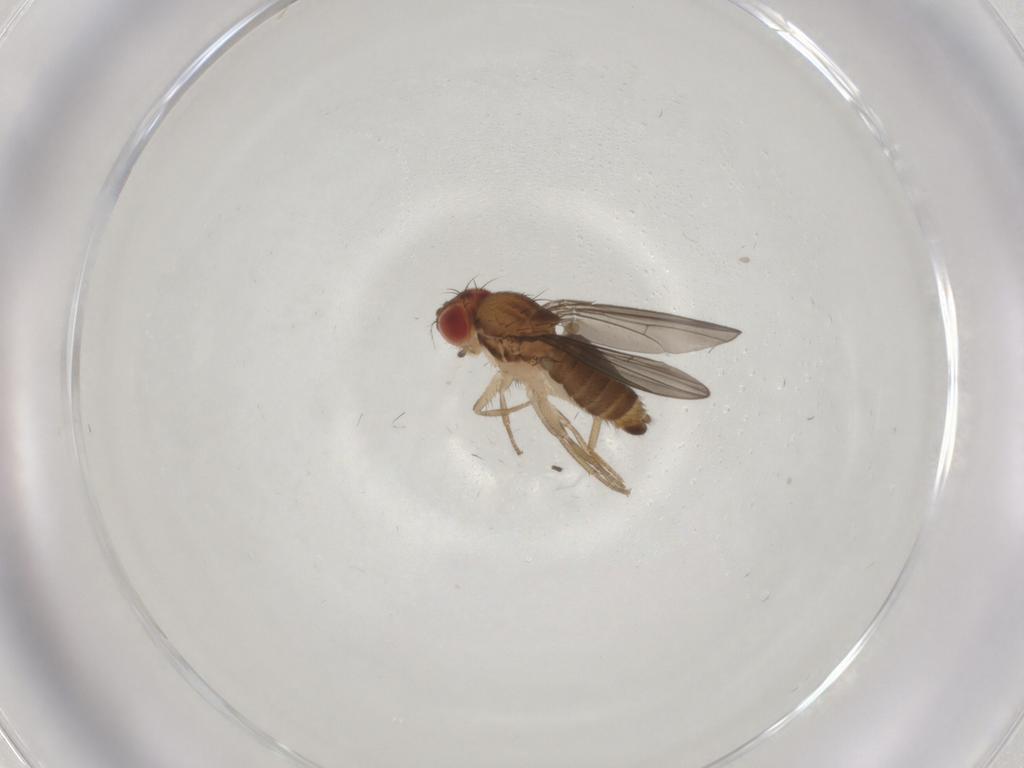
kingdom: Animalia
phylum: Arthropoda
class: Insecta
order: Diptera
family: Drosophilidae
